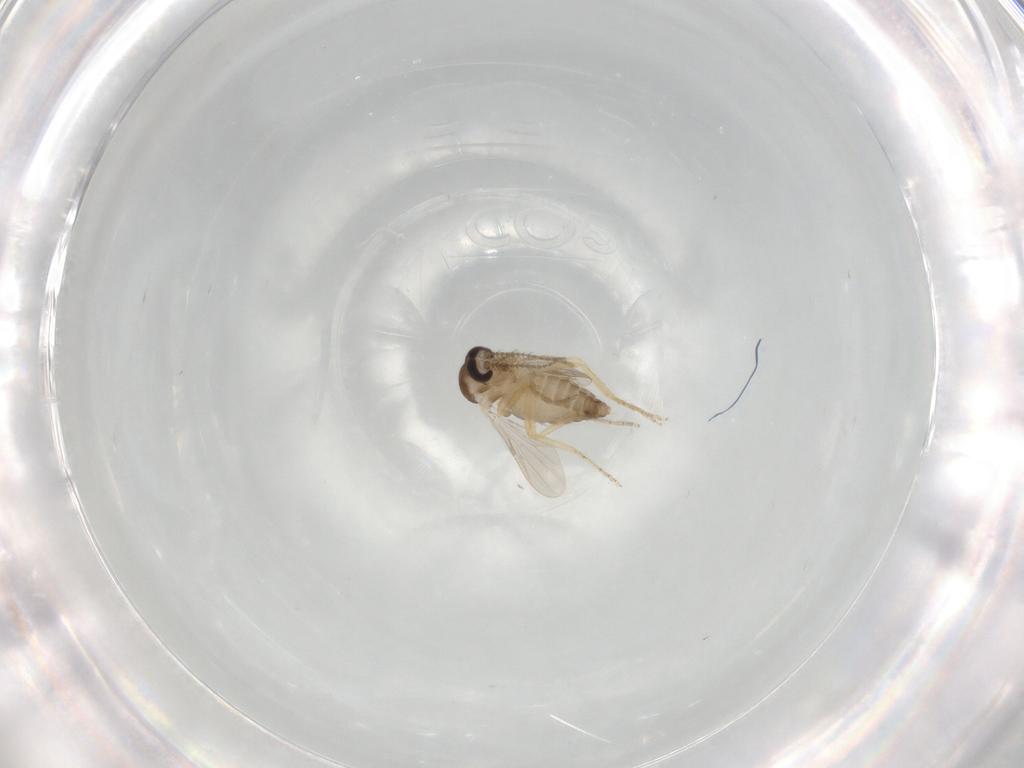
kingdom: Animalia
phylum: Arthropoda
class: Insecta
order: Diptera
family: Ceratopogonidae
